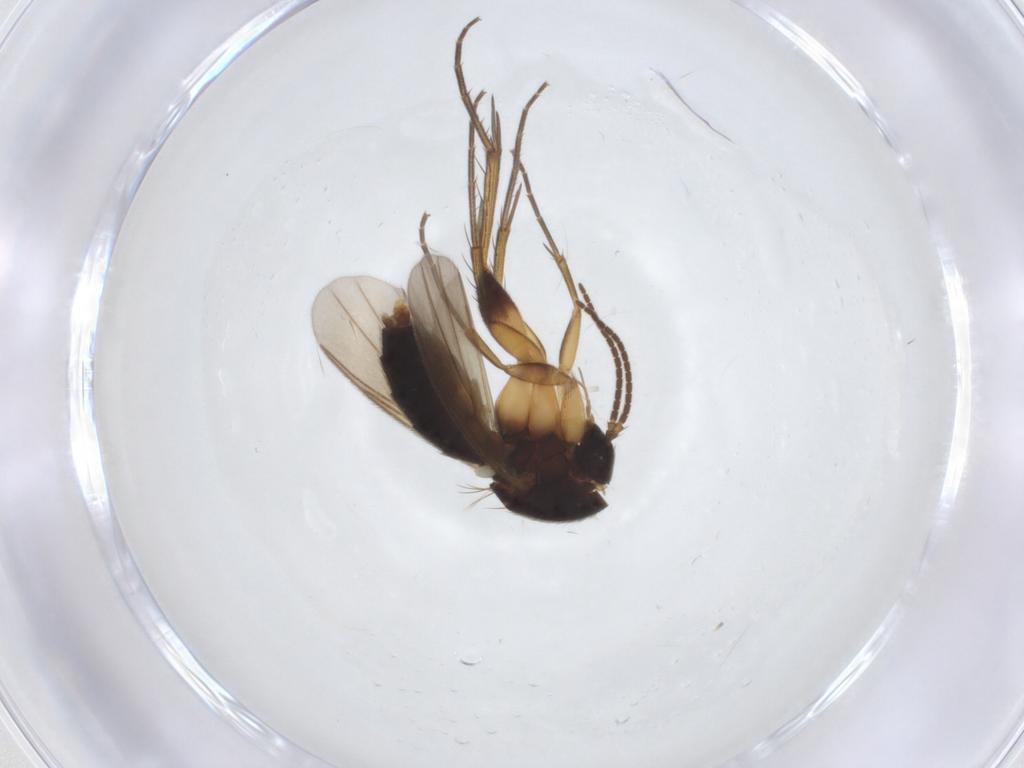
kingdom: Animalia
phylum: Arthropoda
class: Insecta
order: Diptera
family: Mycetophilidae
